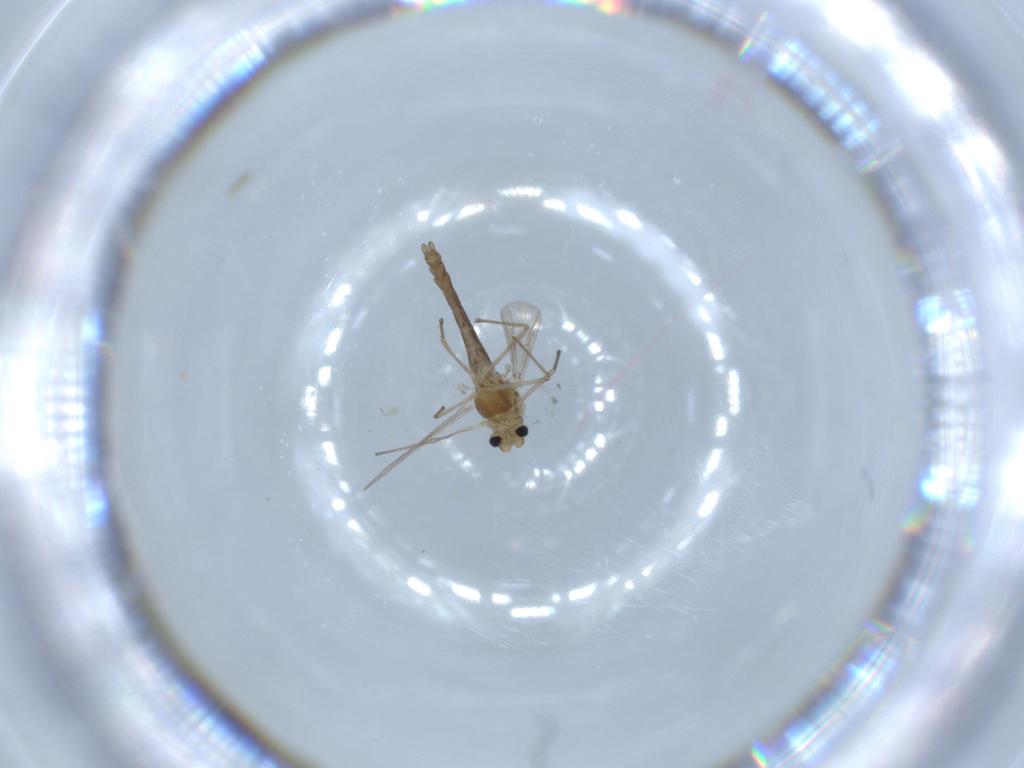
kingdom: Animalia
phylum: Arthropoda
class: Insecta
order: Diptera
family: Chironomidae
